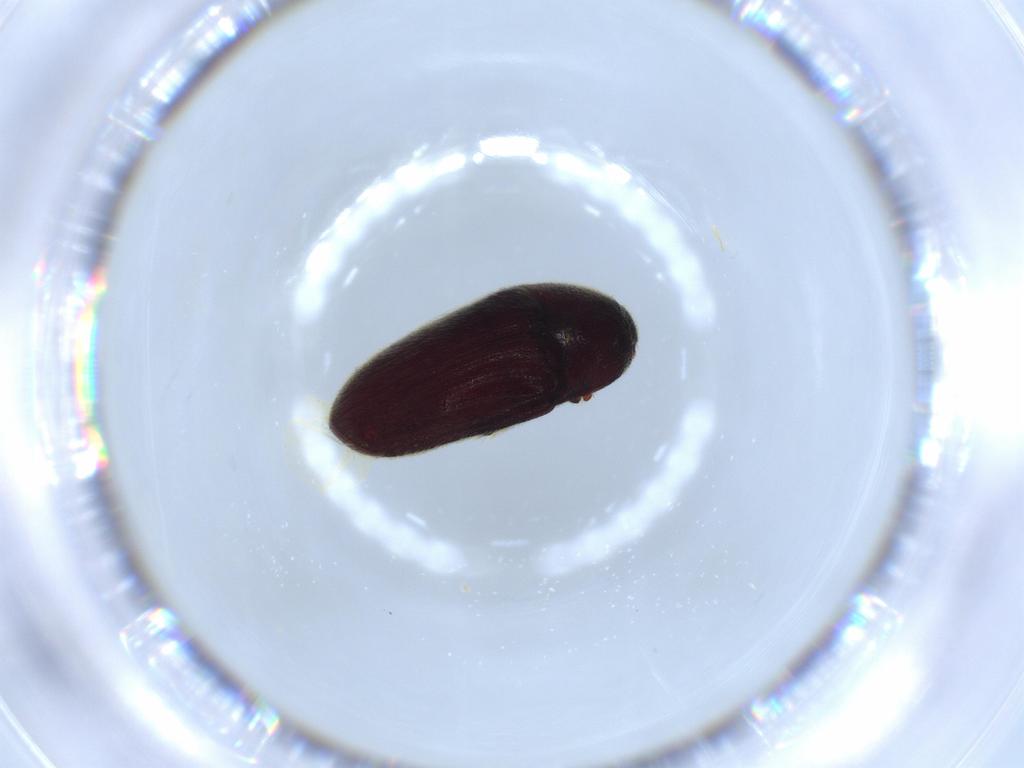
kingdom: Animalia
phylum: Arthropoda
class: Insecta
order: Coleoptera
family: Throscidae
